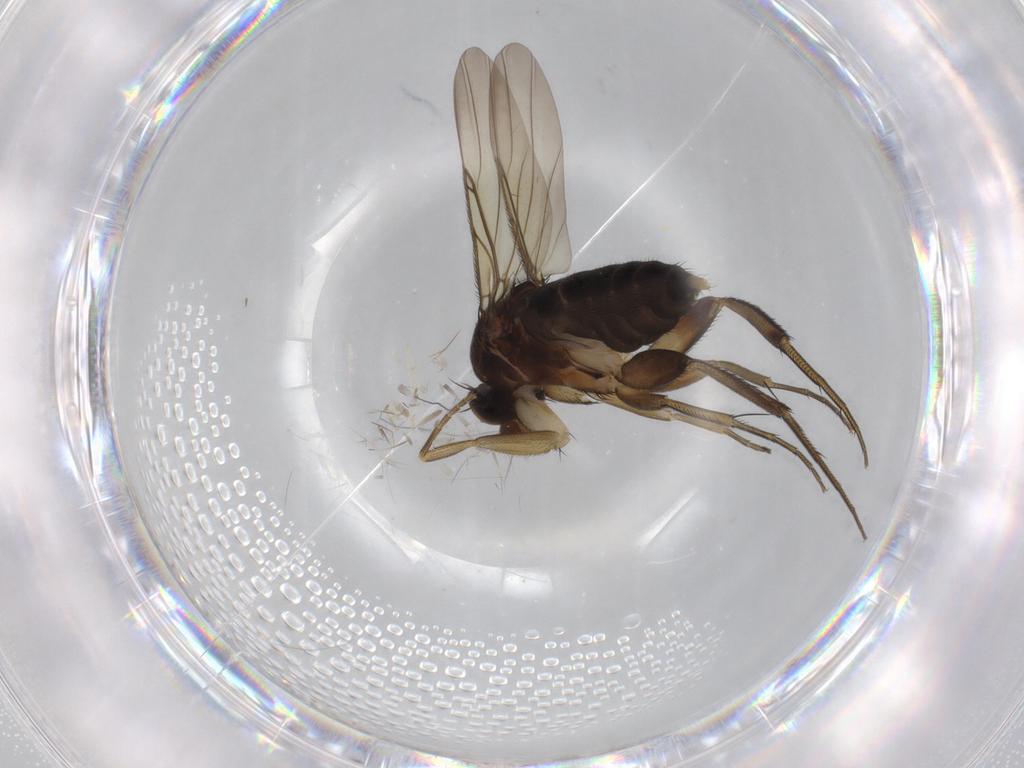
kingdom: Animalia
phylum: Arthropoda
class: Insecta
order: Diptera
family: Phoridae
